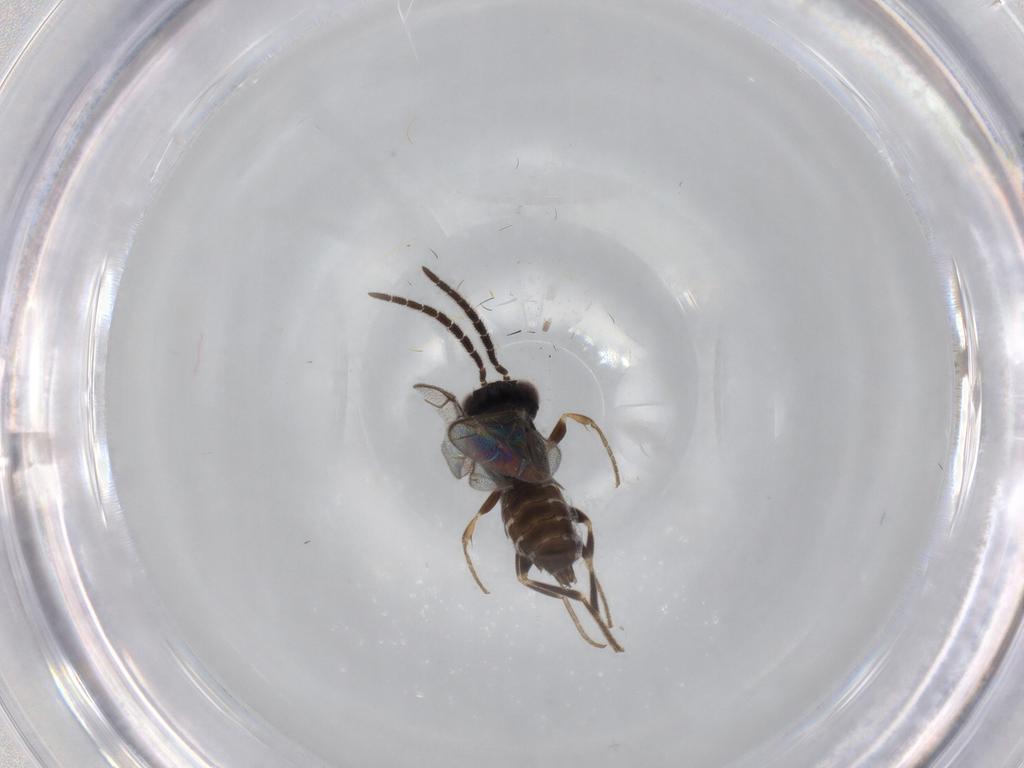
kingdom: Animalia
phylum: Arthropoda
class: Insecta
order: Hymenoptera
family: Dryinidae
